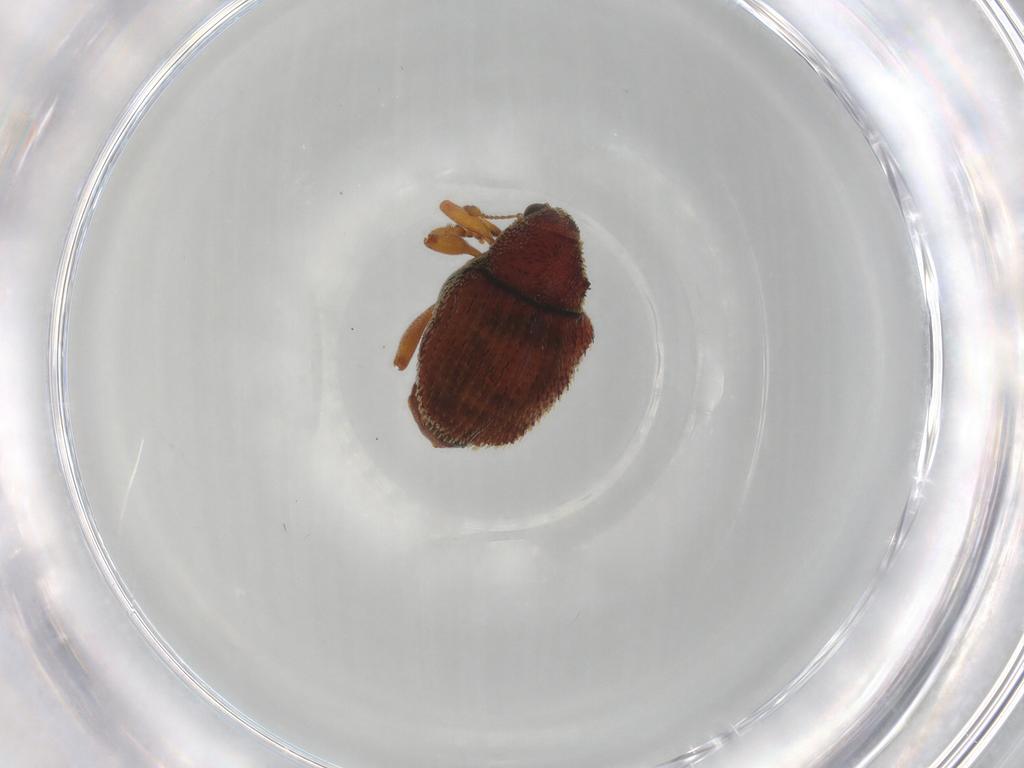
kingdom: Animalia
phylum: Arthropoda
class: Insecta
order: Coleoptera
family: Curculionidae
